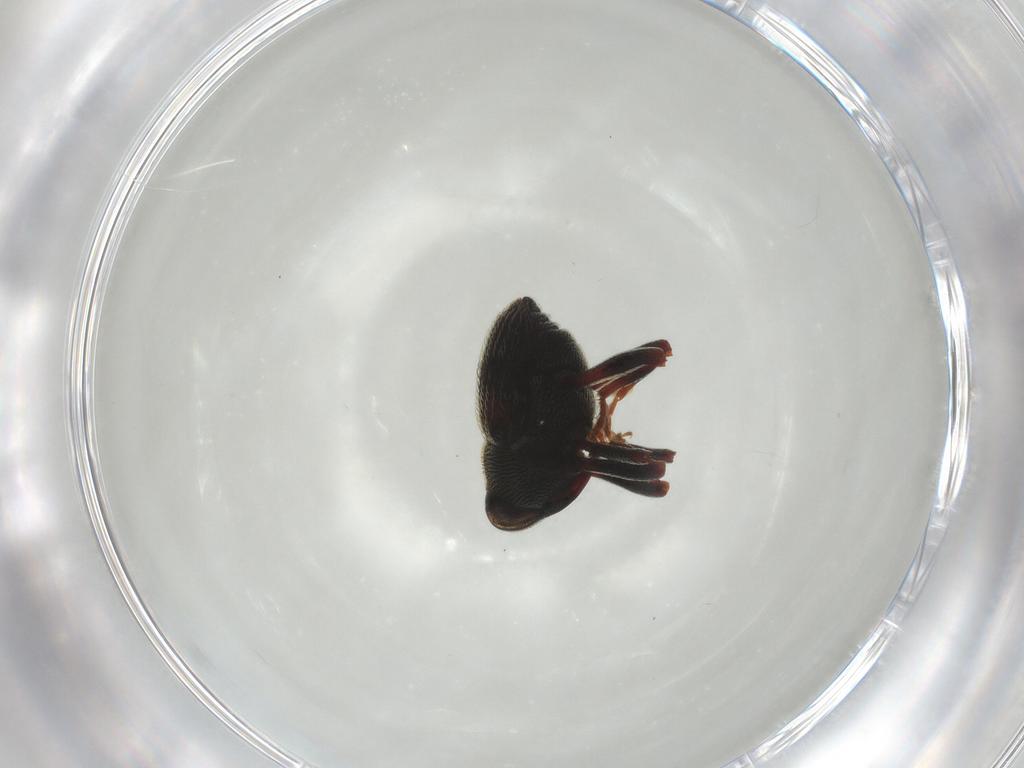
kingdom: Animalia
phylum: Arthropoda
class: Insecta
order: Coleoptera
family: Curculionidae
